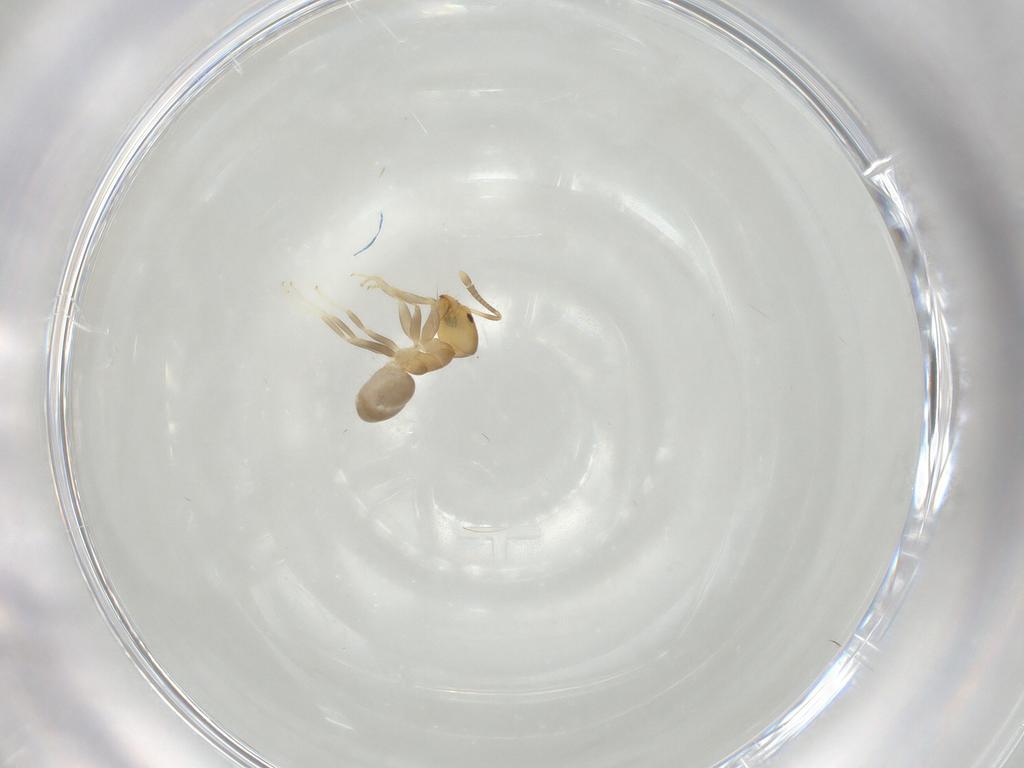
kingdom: Animalia
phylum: Arthropoda
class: Insecta
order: Hymenoptera
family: Formicidae
